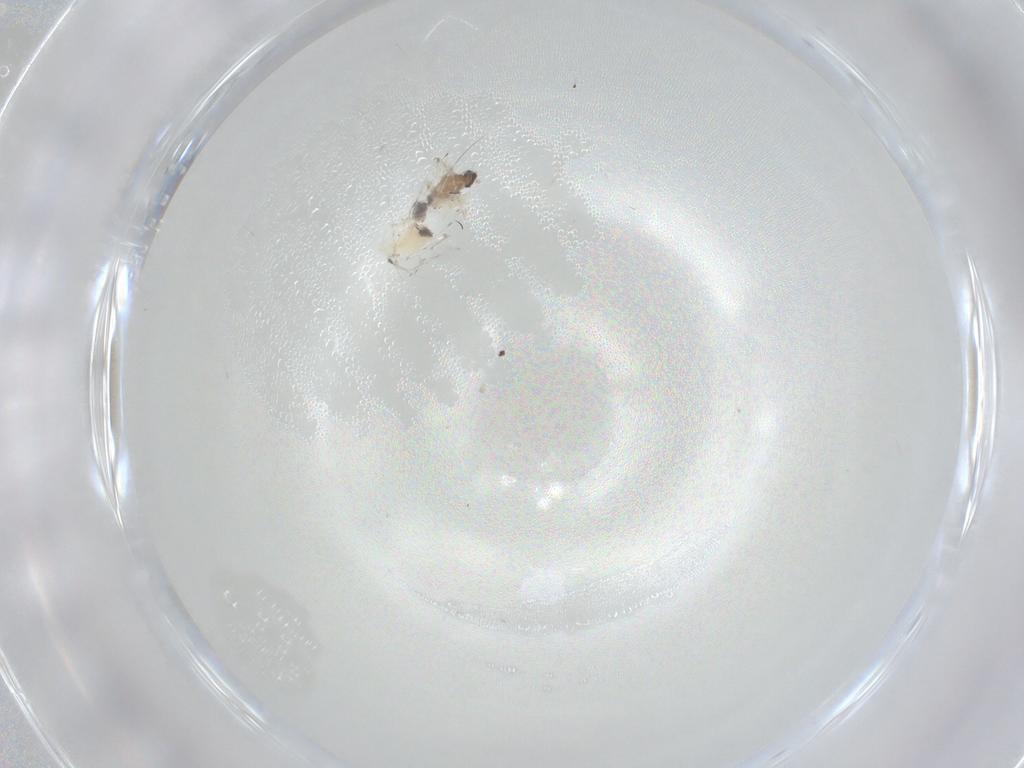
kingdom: Animalia
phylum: Arthropoda
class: Insecta
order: Diptera
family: Chironomidae
